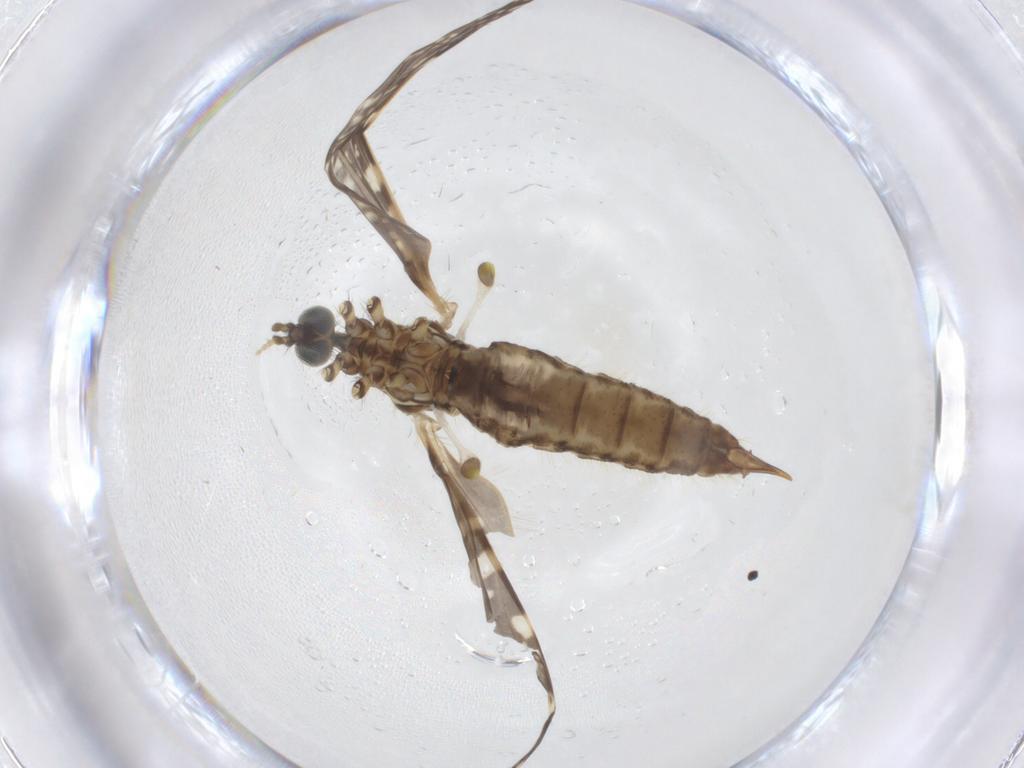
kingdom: Animalia
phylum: Arthropoda
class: Insecta
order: Diptera
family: Limoniidae
